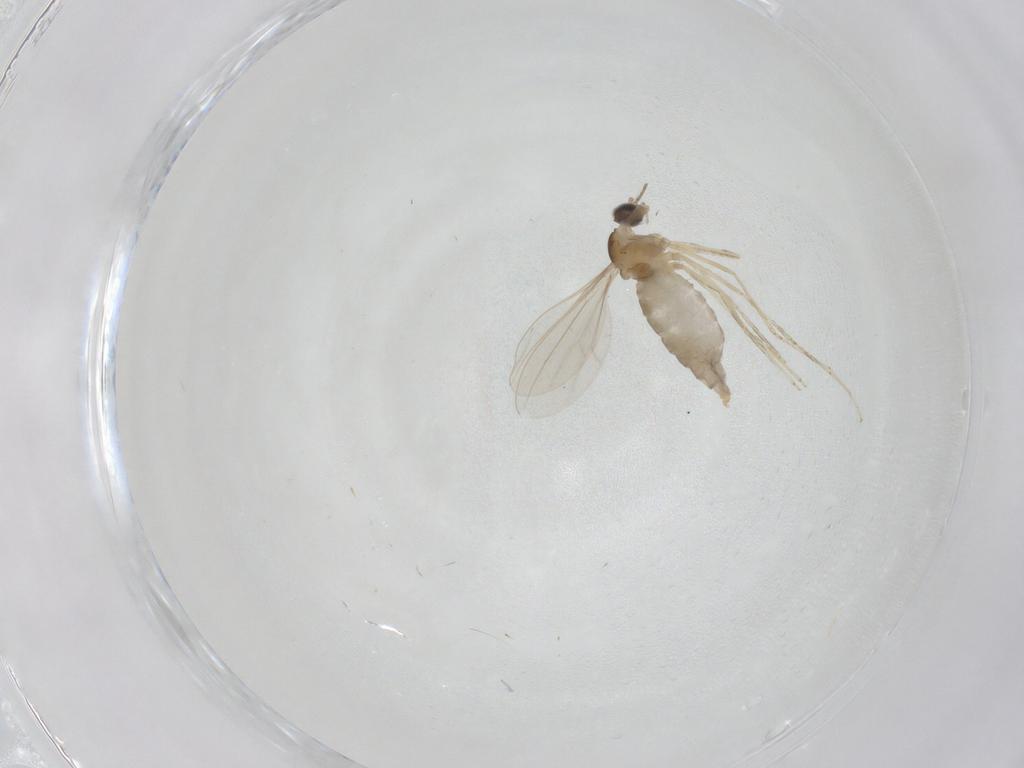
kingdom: Animalia
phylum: Arthropoda
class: Insecta
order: Diptera
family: Cecidomyiidae
